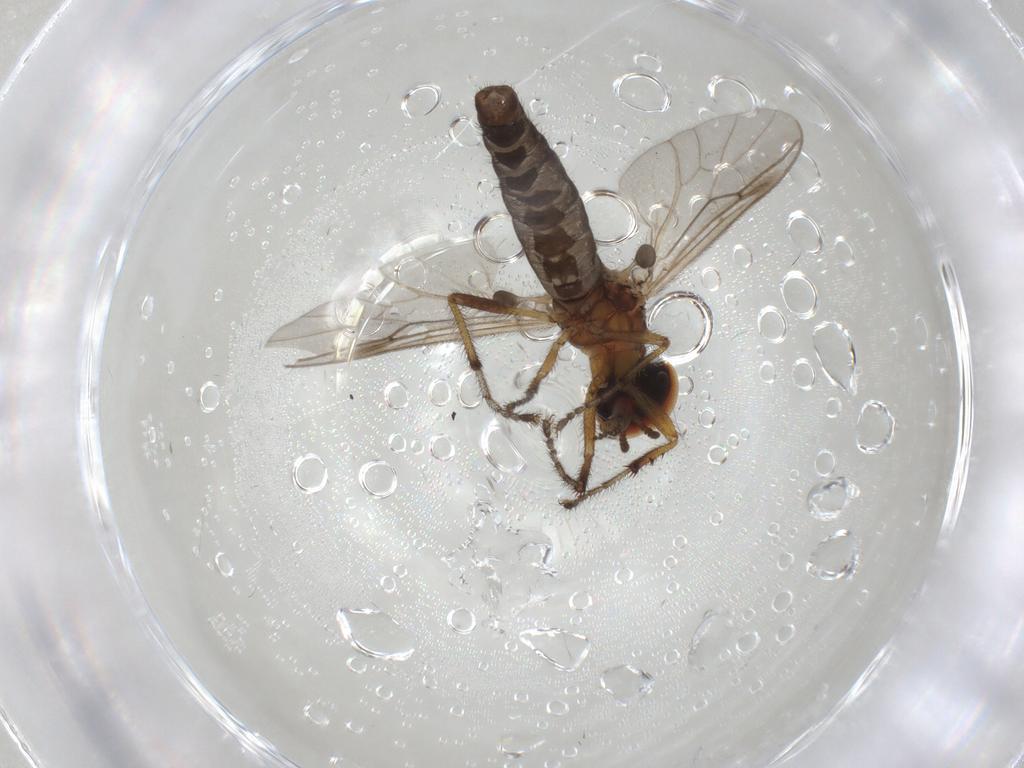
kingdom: Animalia
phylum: Arthropoda
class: Insecta
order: Diptera
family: Bibionidae
